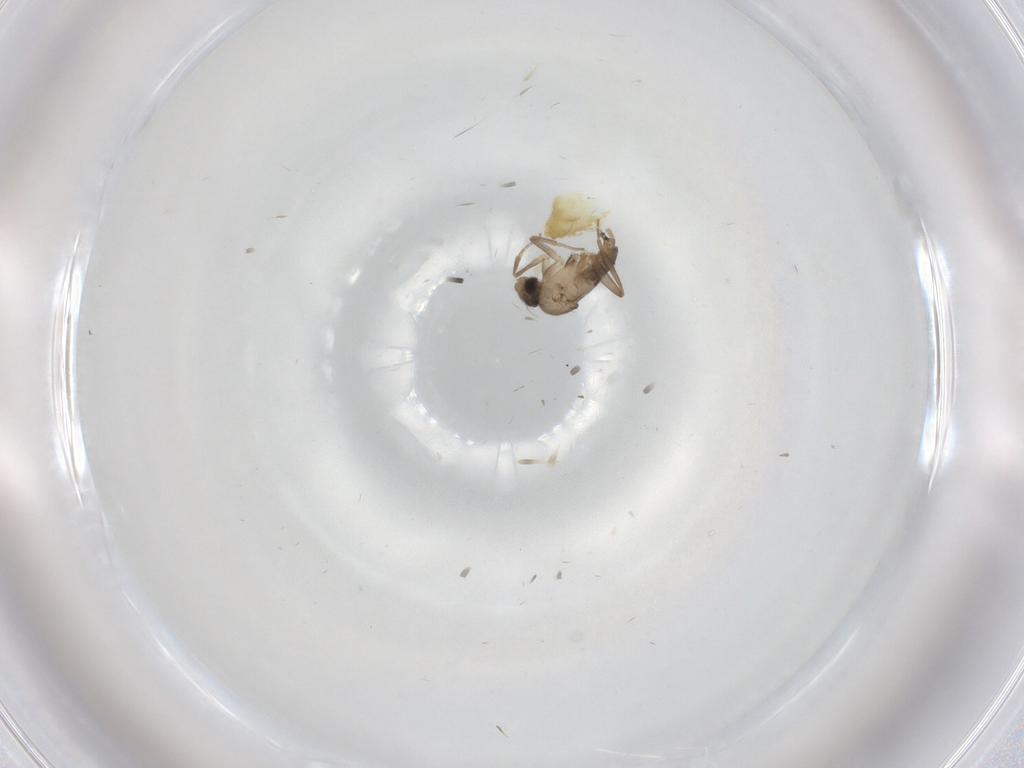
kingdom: Animalia
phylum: Arthropoda
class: Insecta
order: Diptera
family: Chironomidae
